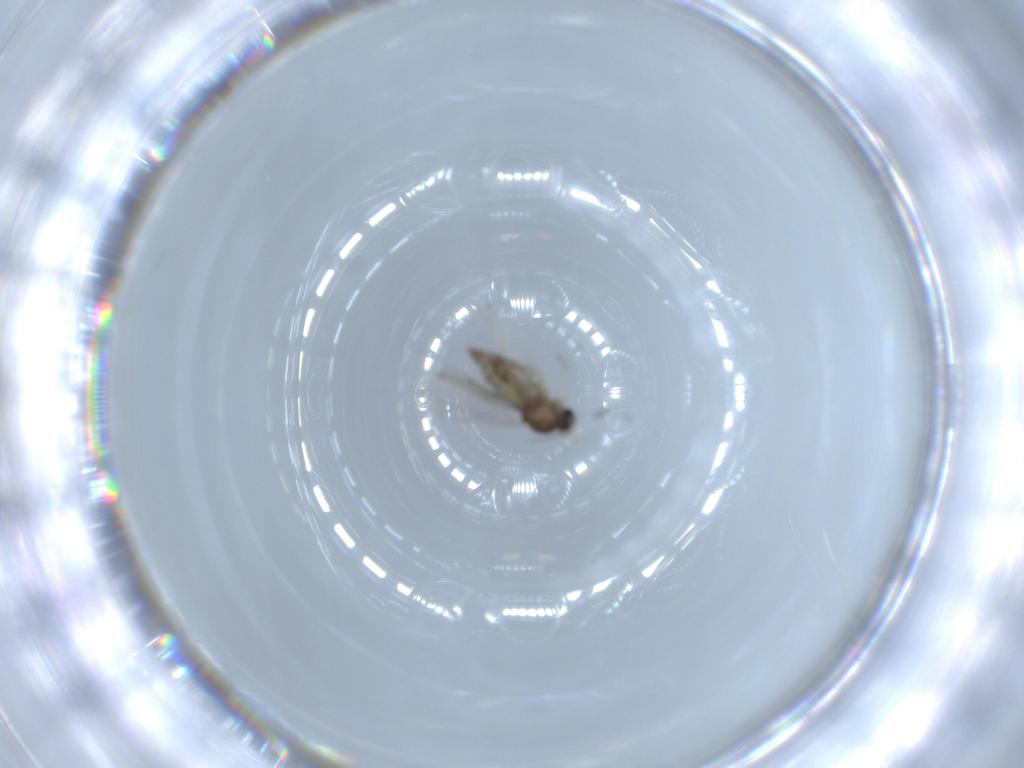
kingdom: Animalia
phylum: Arthropoda
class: Insecta
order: Diptera
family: Cecidomyiidae
